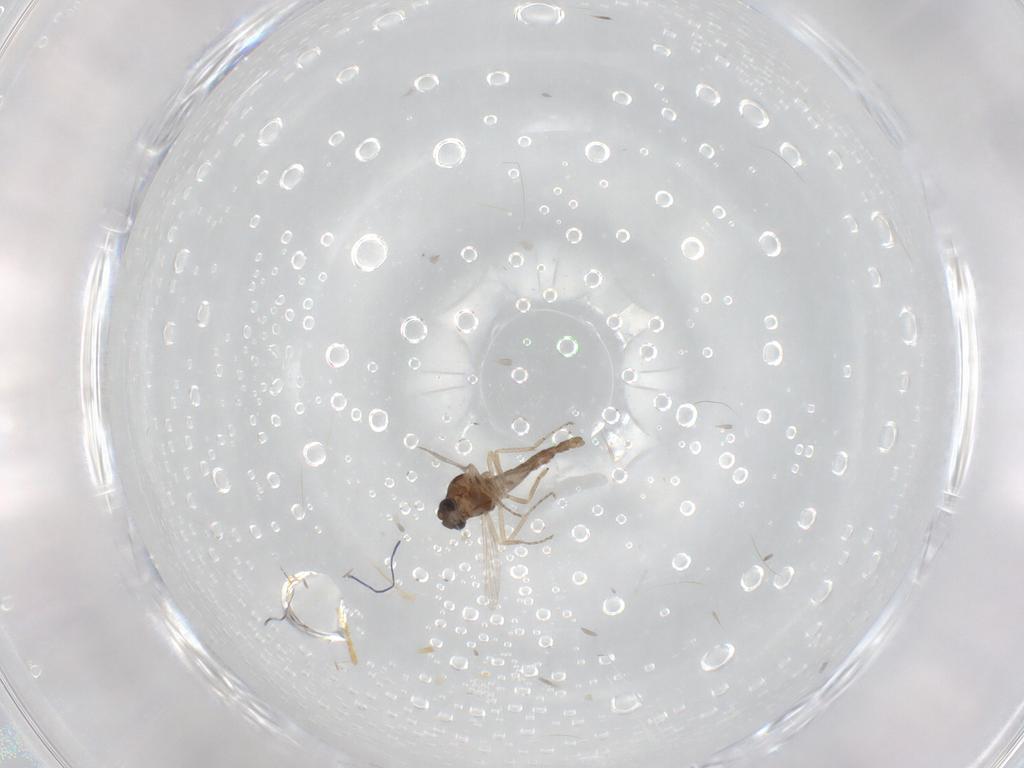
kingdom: Animalia
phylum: Arthropoda
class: Insecta
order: Diptera
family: Ceratopogonidae
